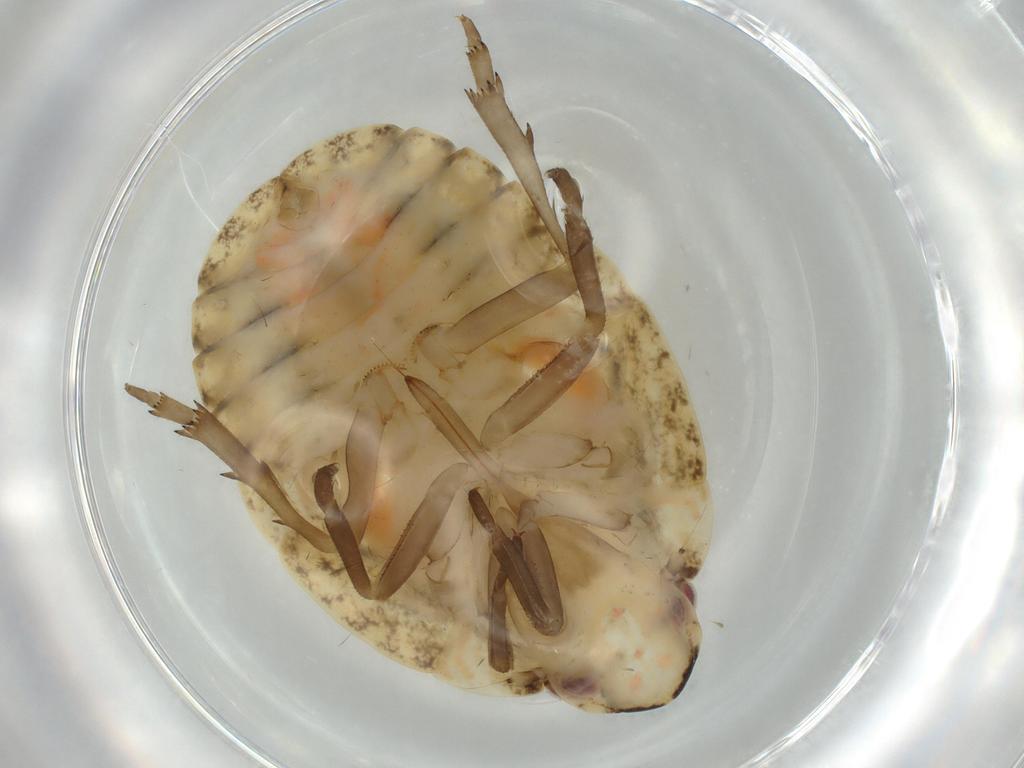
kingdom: Animalia
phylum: Arthropoda
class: Insecta
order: Hemiptera
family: Flatidae
